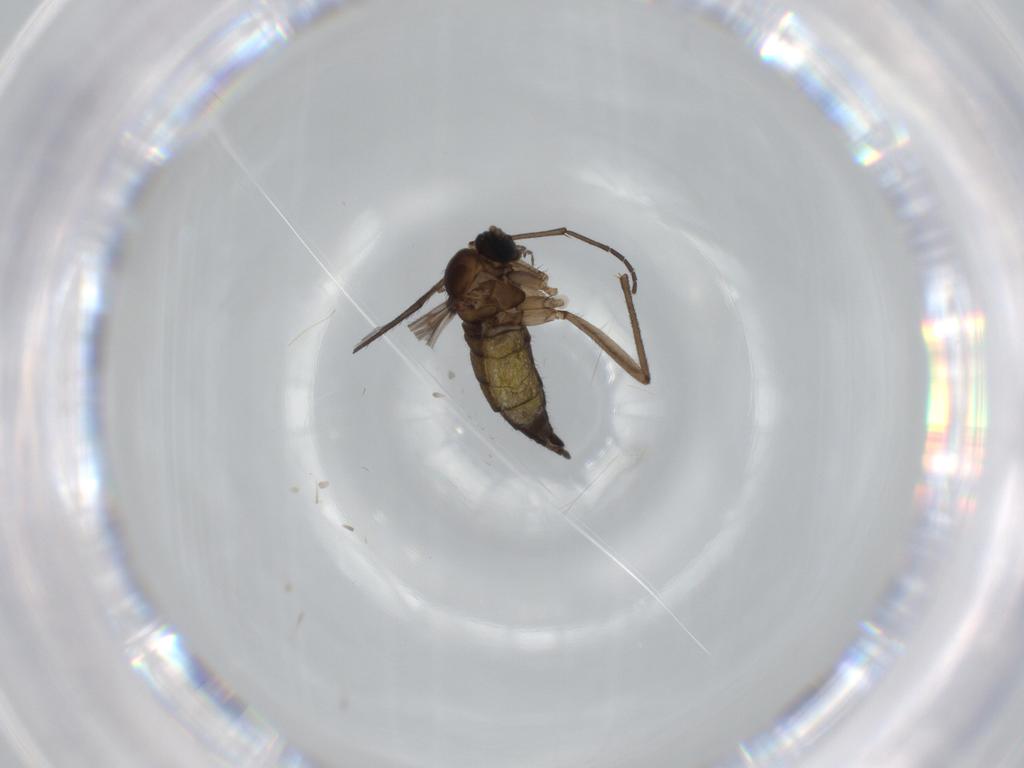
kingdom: Animalia
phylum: Arthropoda
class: Insecta
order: Diptera
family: Sciaridae
